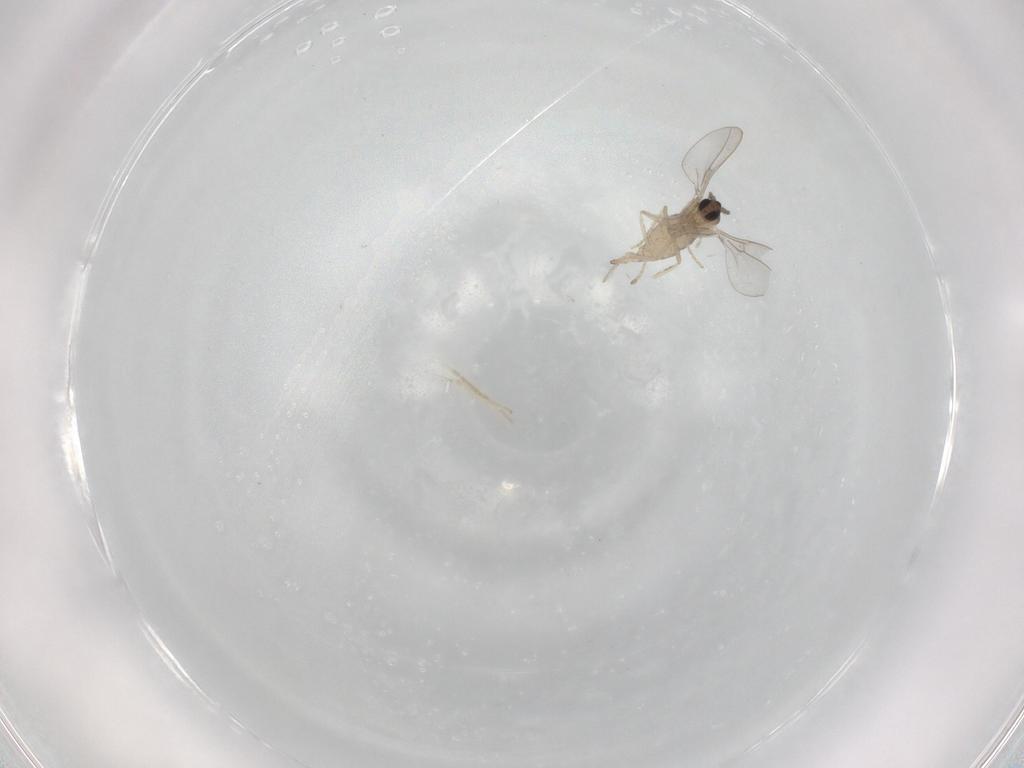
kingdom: Animalia
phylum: Arthropoda
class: Insecta
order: Diptera
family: Cecidomyiidae
